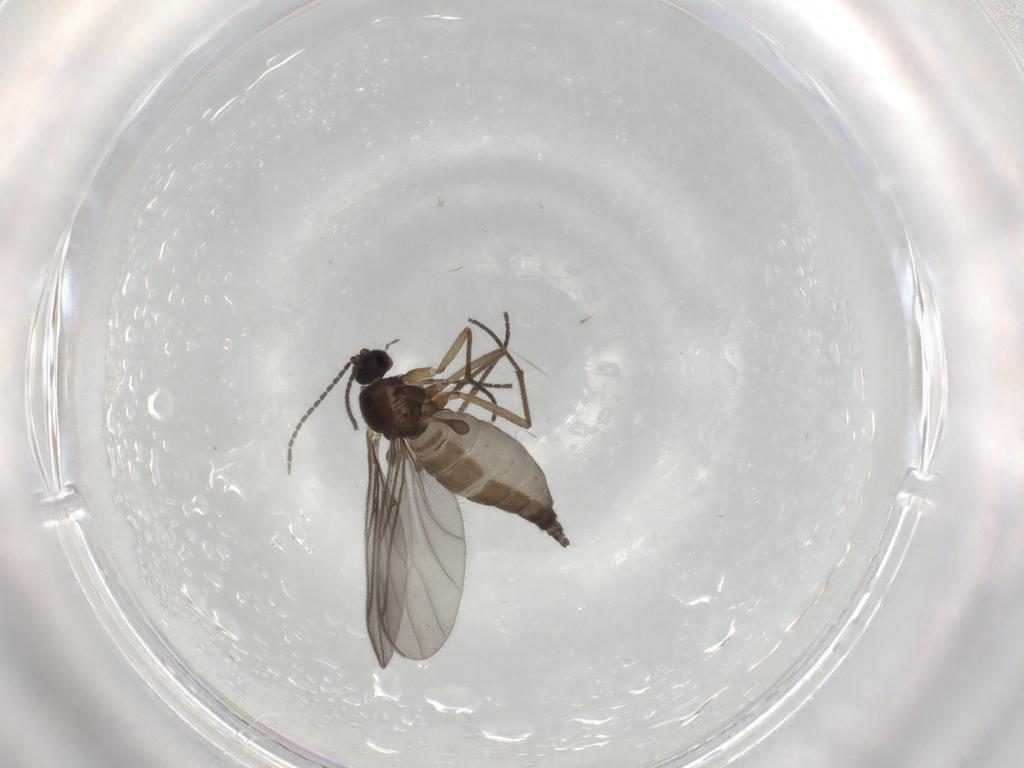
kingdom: Animalia
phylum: Arthropoda
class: Insecta
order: Diptera
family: Sciaridae
